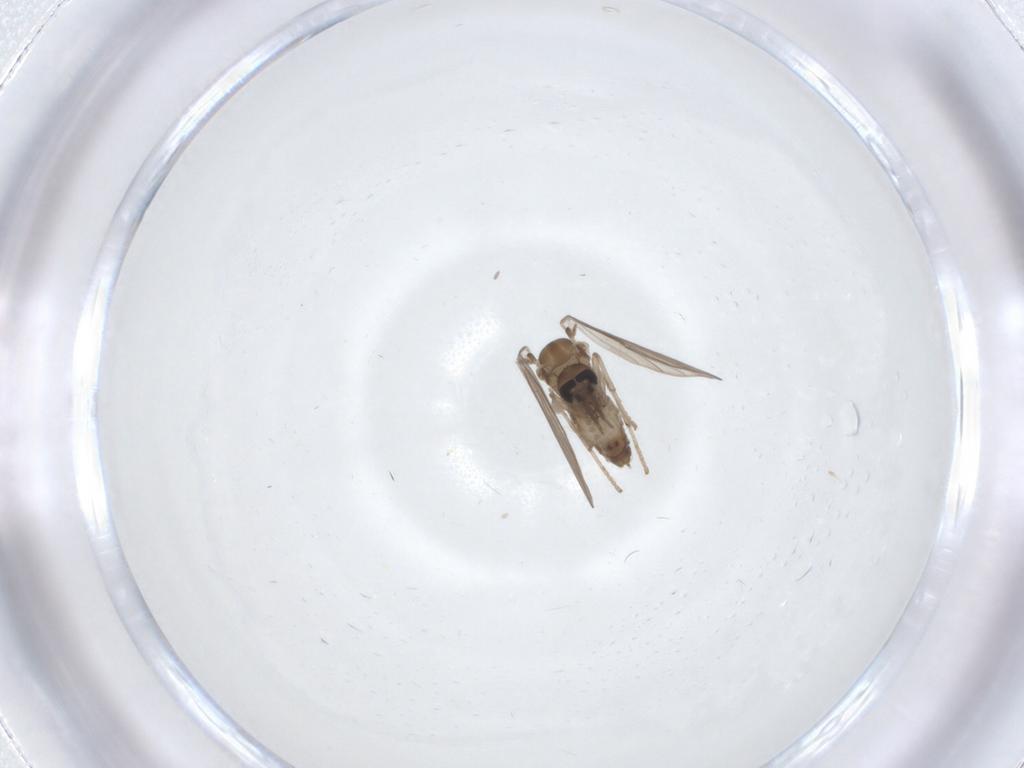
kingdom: Animalia
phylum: Arthropoda
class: Insecta
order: Diptera
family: Psychodidae
